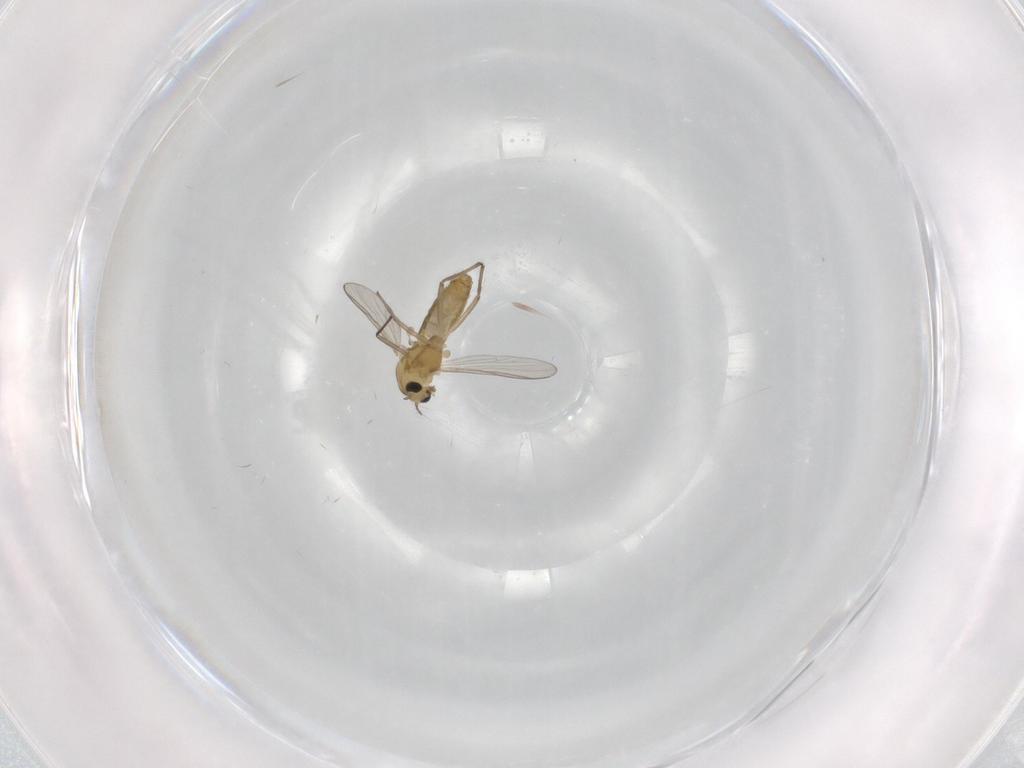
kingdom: Animalia
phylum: Arthropoda
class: Insecta
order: Diptera
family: Chironomidae
